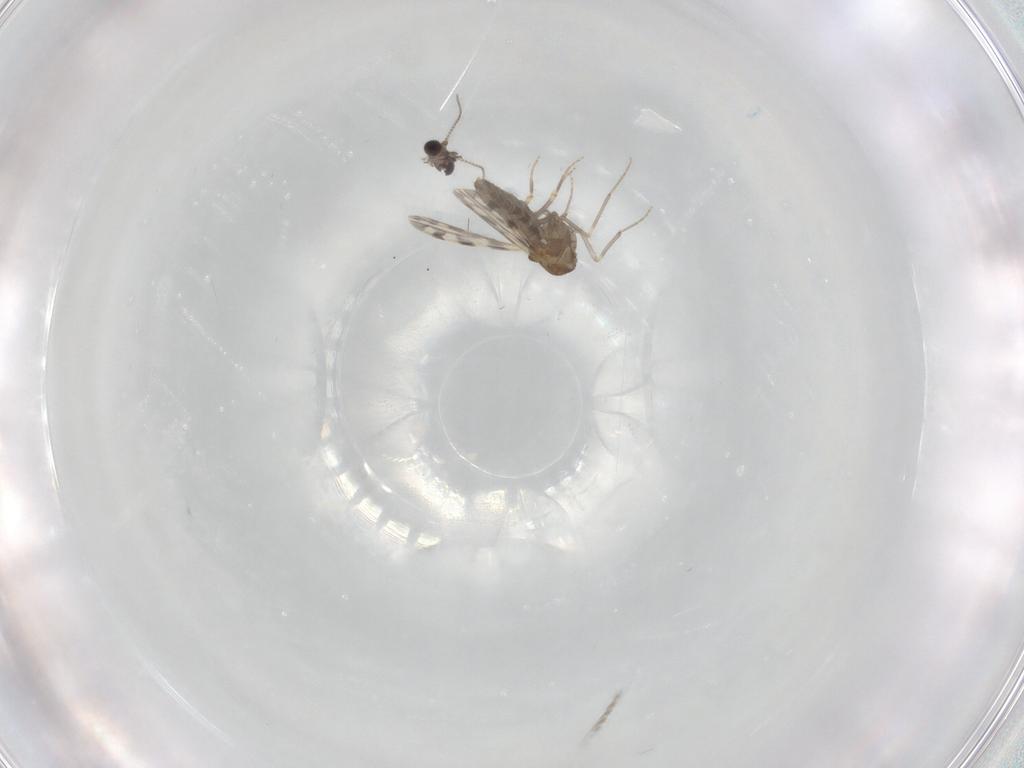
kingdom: Animalia
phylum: Arthropoda
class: Insecta
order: Diptera
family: Ceratopogonidae
